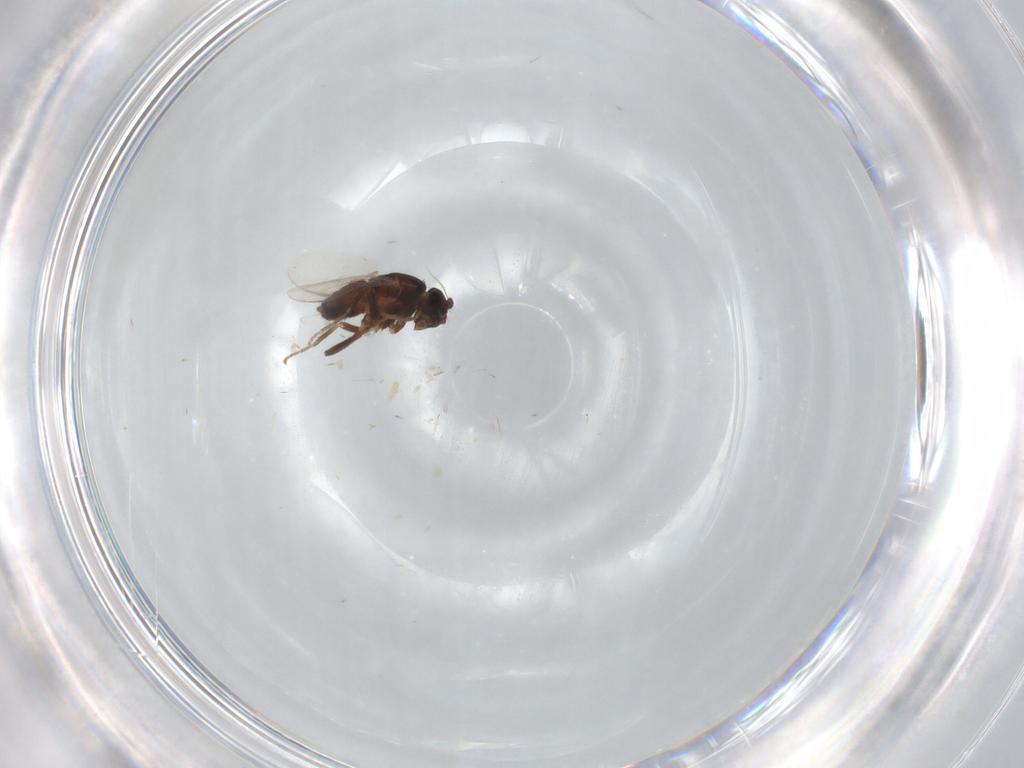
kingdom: Animalia
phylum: Arthropoda
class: Insecta
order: Diptera
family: Sphaeroceridae
